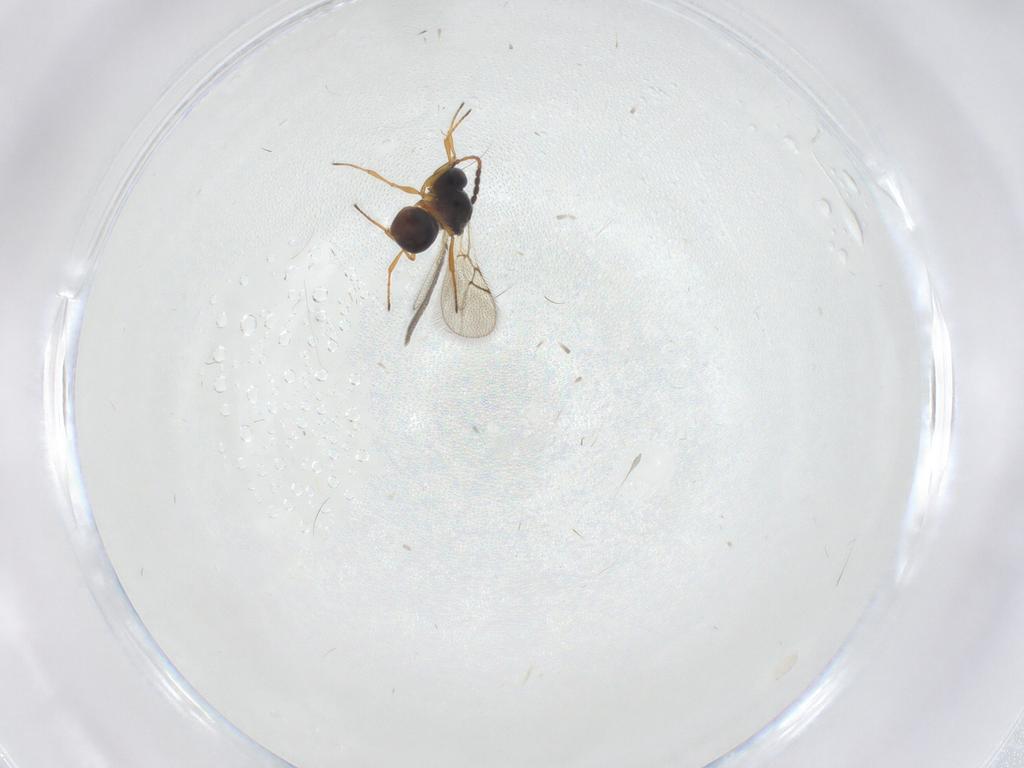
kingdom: Animalia
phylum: Arthropoda
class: Insecta
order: Hymenoptera
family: Figitidae
